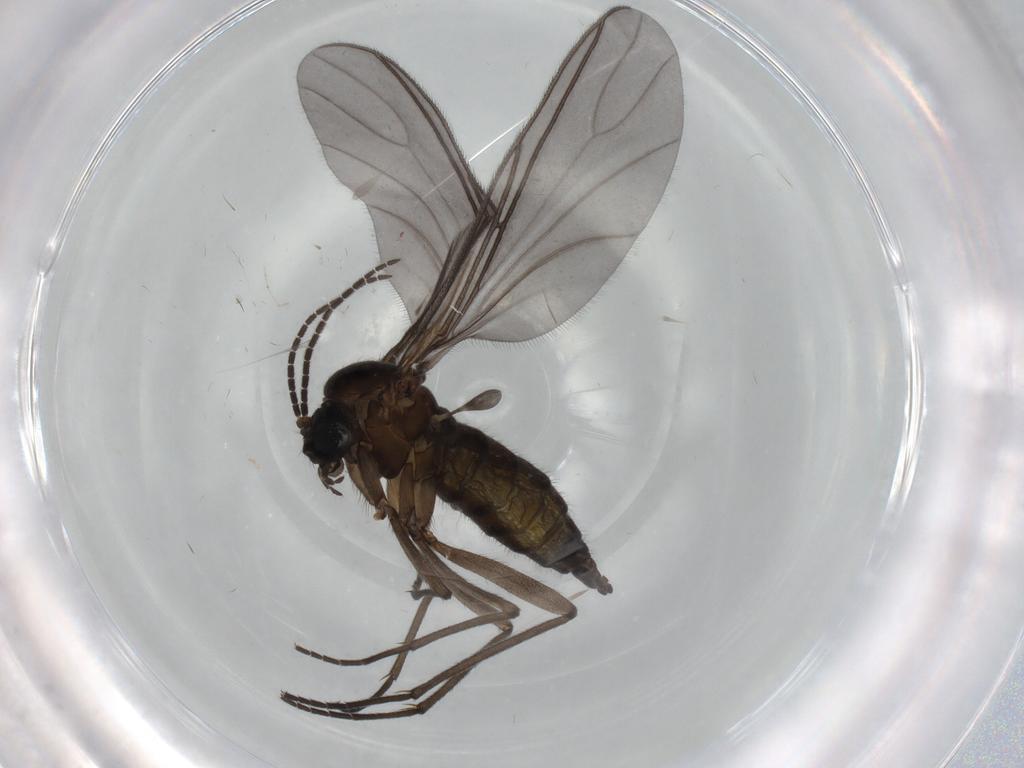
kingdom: Animalia
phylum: Arthropoda
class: Insecta
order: Diptera
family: Sciaridae
